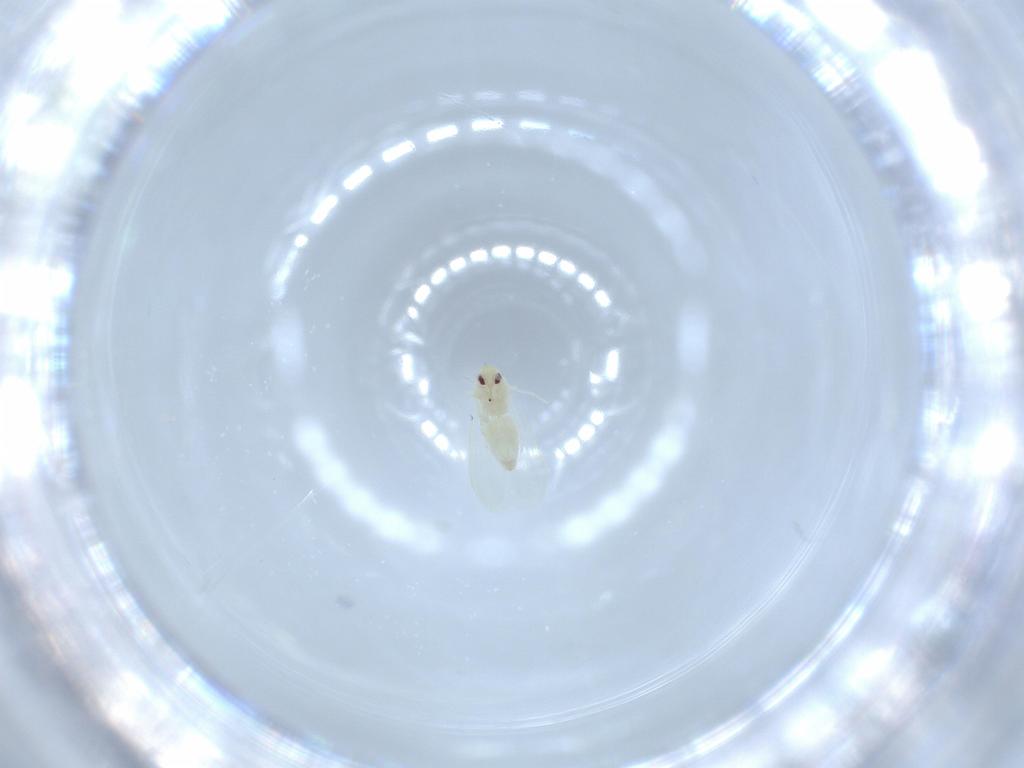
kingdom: Animalia
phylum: Arthropoda
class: Insecta
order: Hemiptera
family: Aleyrodidae
